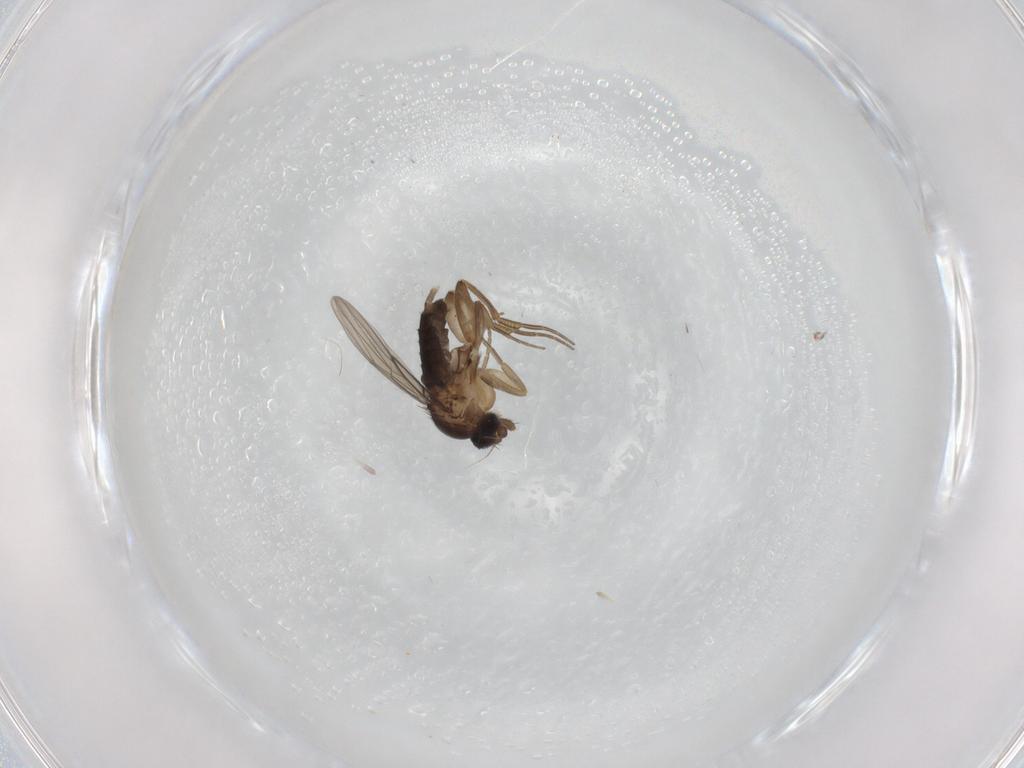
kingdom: Animalia
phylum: Arthropoda
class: Insecta
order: Diptera
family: Phoridae
